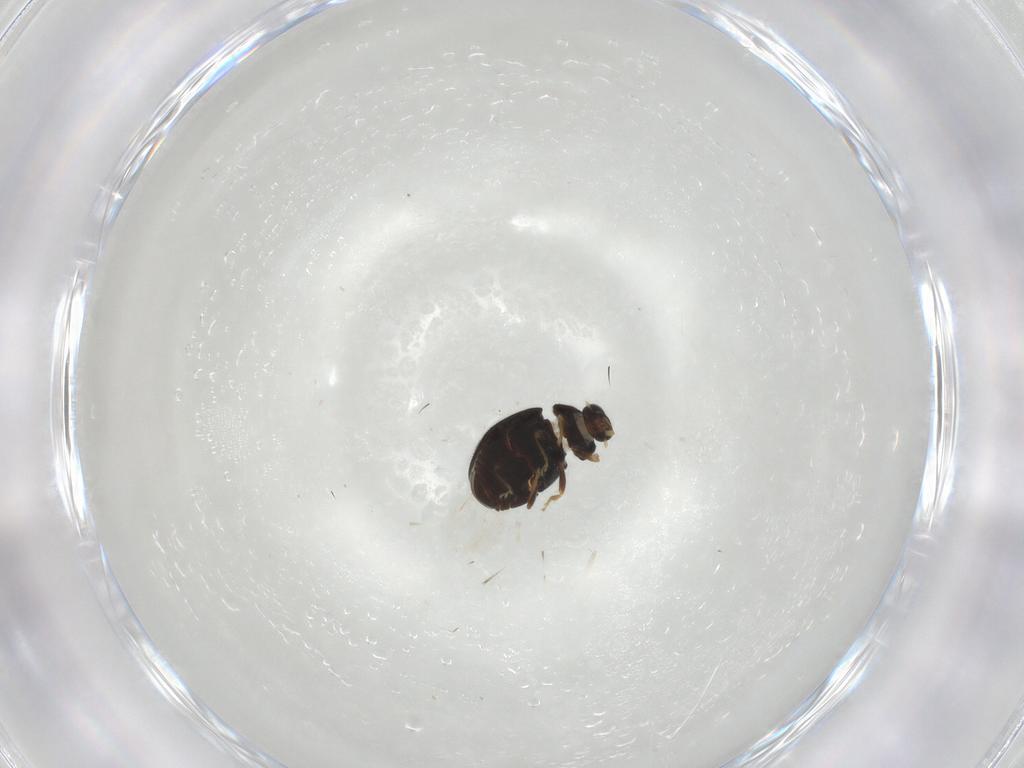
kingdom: Animalia
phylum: Arthropoda
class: Insecta
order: Coleoptera
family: Coccinellidae
